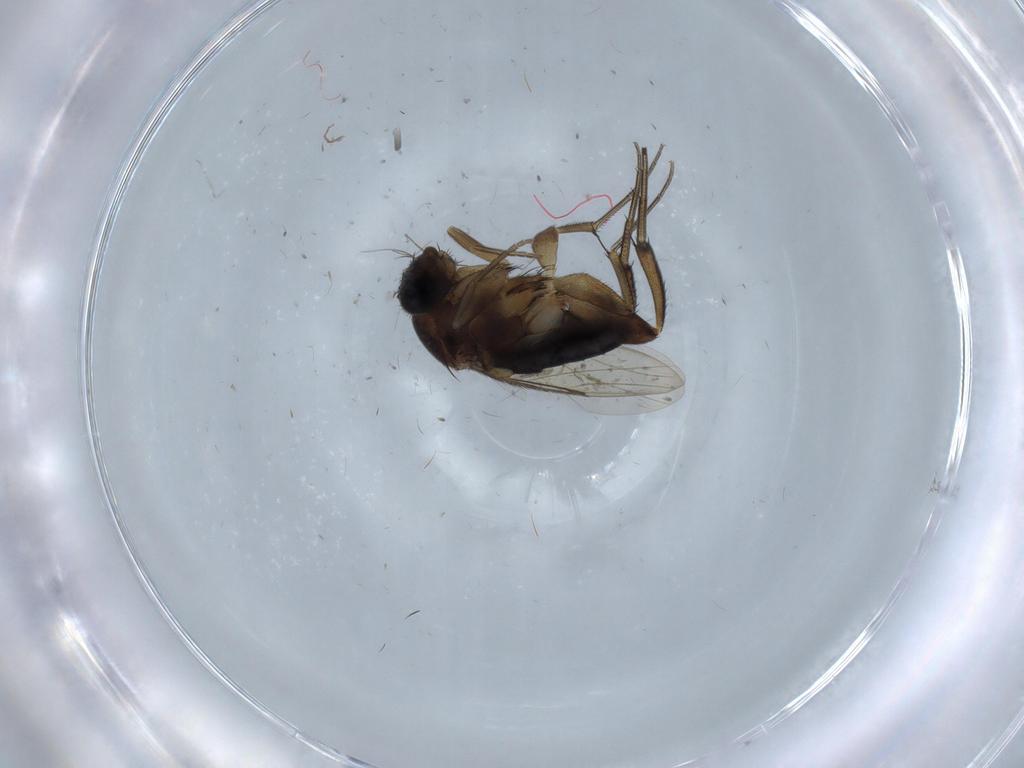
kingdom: Animalia
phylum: Arthropoda
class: Insecta
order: Diptera
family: Phoridae
